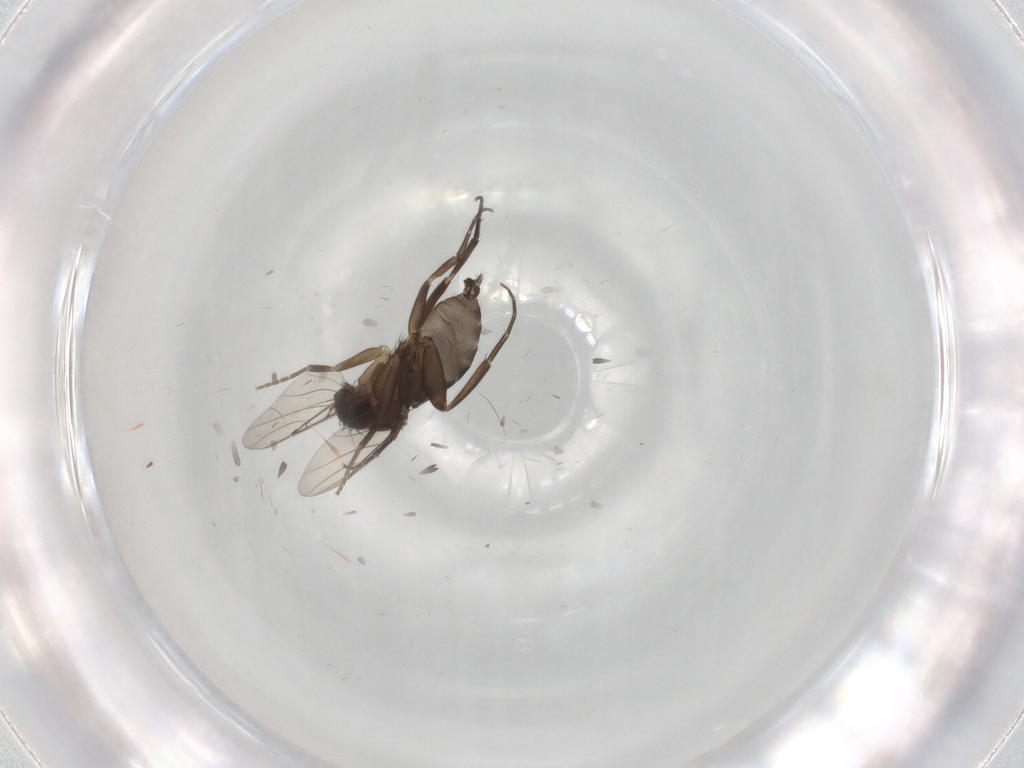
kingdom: Animalia
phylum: Arthropoda
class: Insecta
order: Diptera
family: Phoridae
